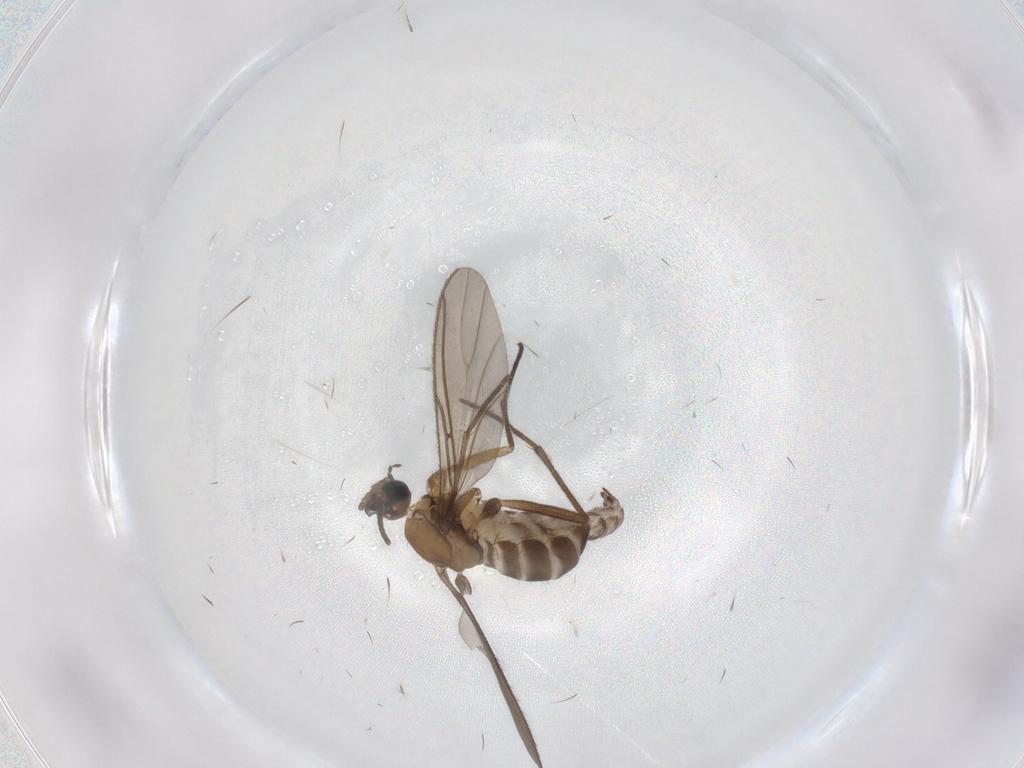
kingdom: Animalia
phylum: Arthropoda
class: Insecta
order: Diptera
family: Sciaridae
